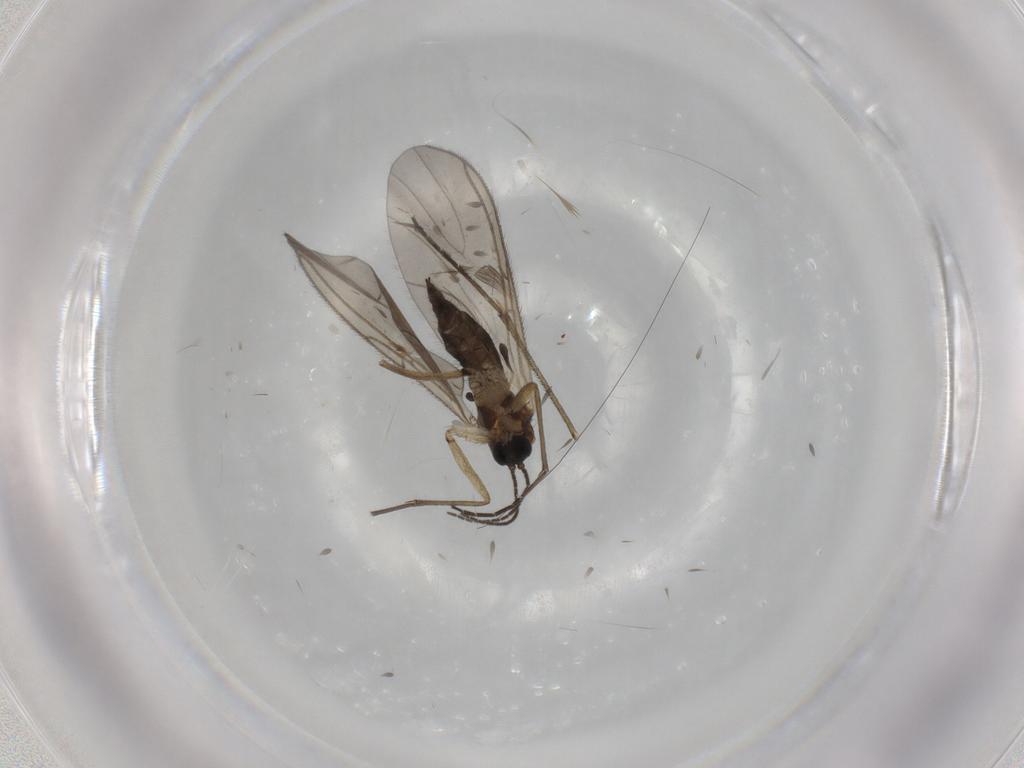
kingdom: Animalia
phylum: Arthropoda
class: Insecta
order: Diptera
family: Sciaridae
